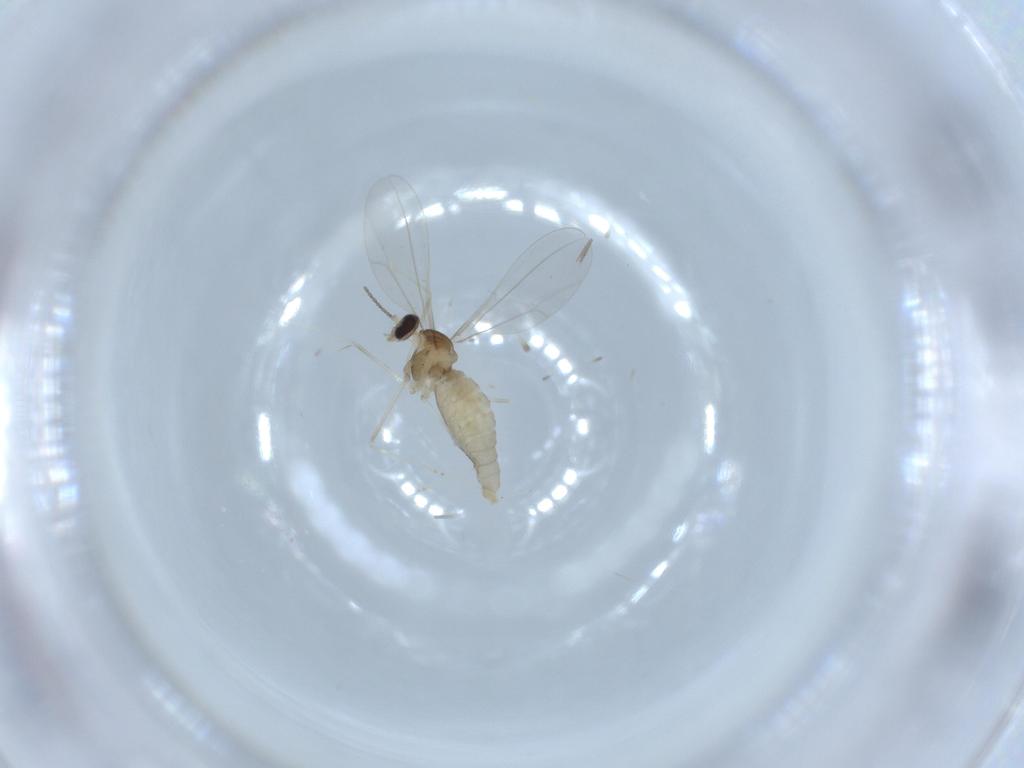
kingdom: Animalia
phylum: Arthropoda
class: Insecta
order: Diptera
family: Cecidomyiidae
